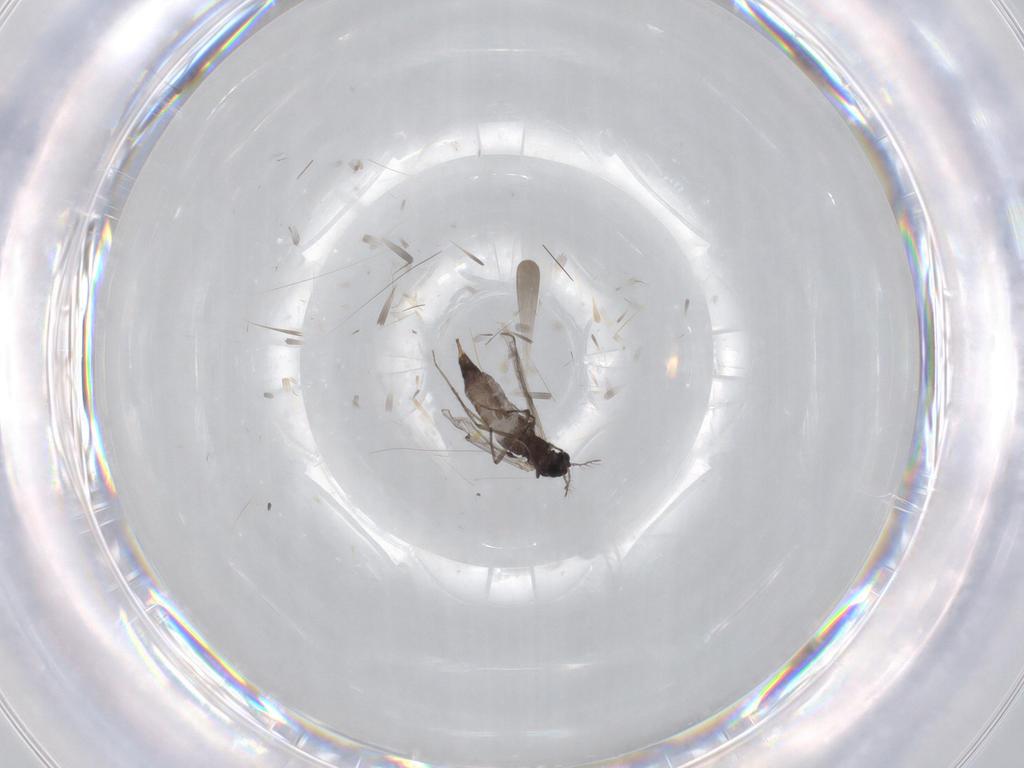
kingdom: Animalia
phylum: Arthropoda
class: Insecta
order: Diptera
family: Chironomidae
